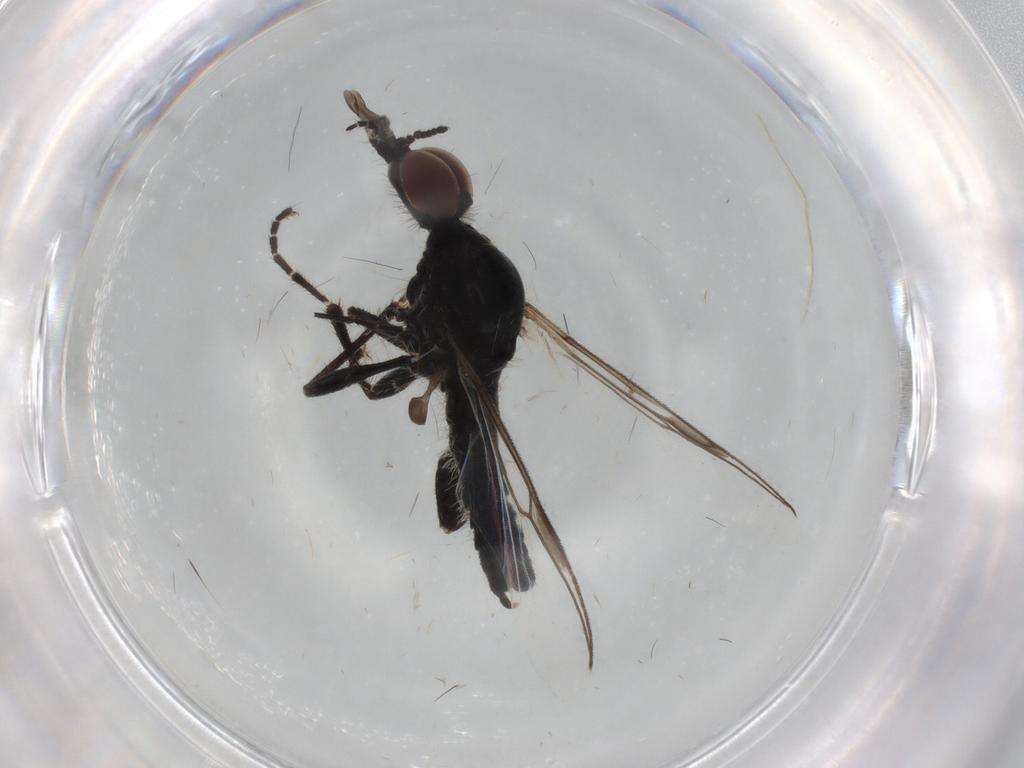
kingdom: Animalia
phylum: Arthropoda
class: Insecta
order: Diptera
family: Bibionidae
